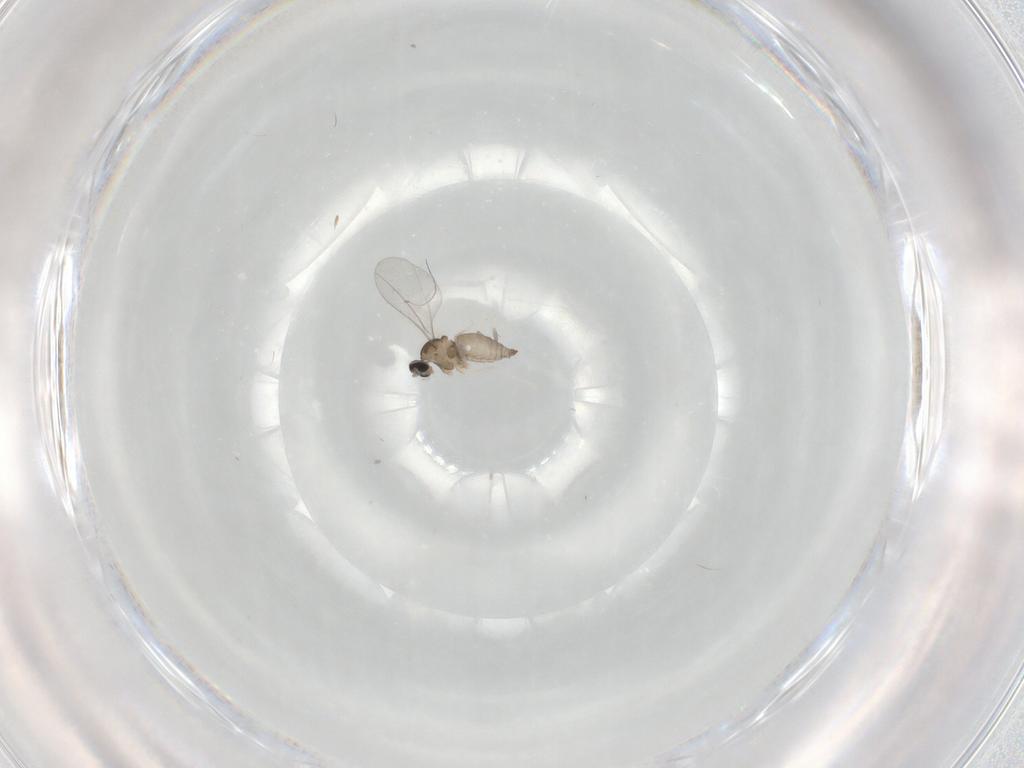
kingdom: Animalia
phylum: Arthropoda
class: Insecta
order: Diptera
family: Cecidomyiidae
